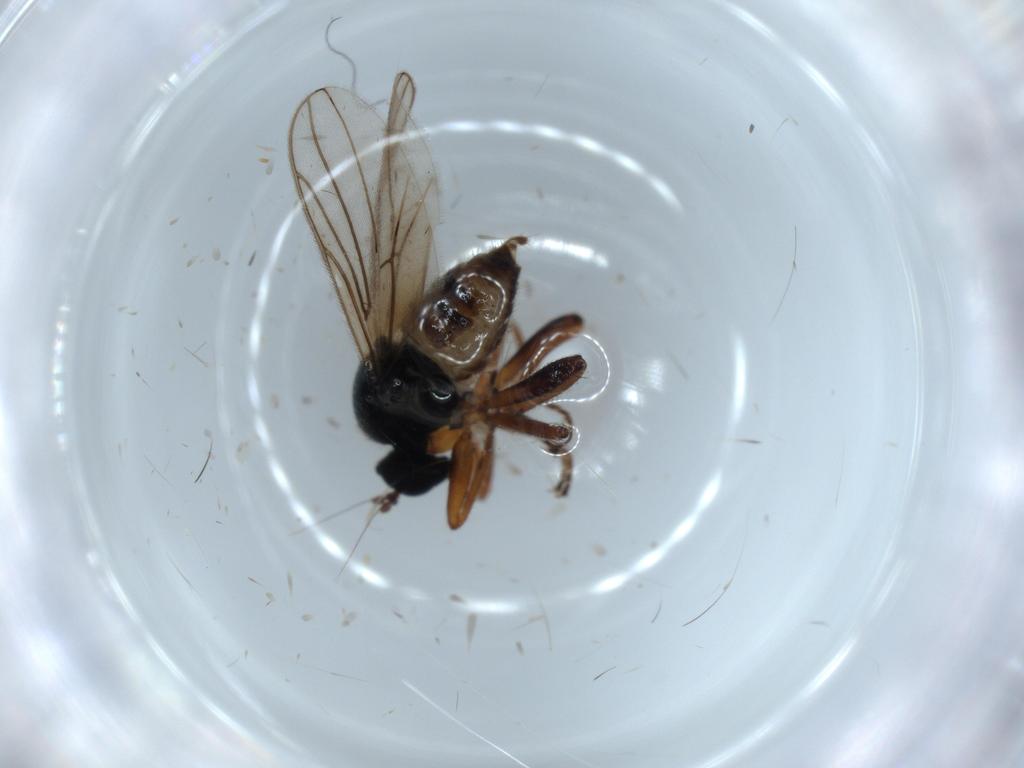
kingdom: Animalia
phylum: Arthropoda
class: Insecta
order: Diptera
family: Hybotidae
